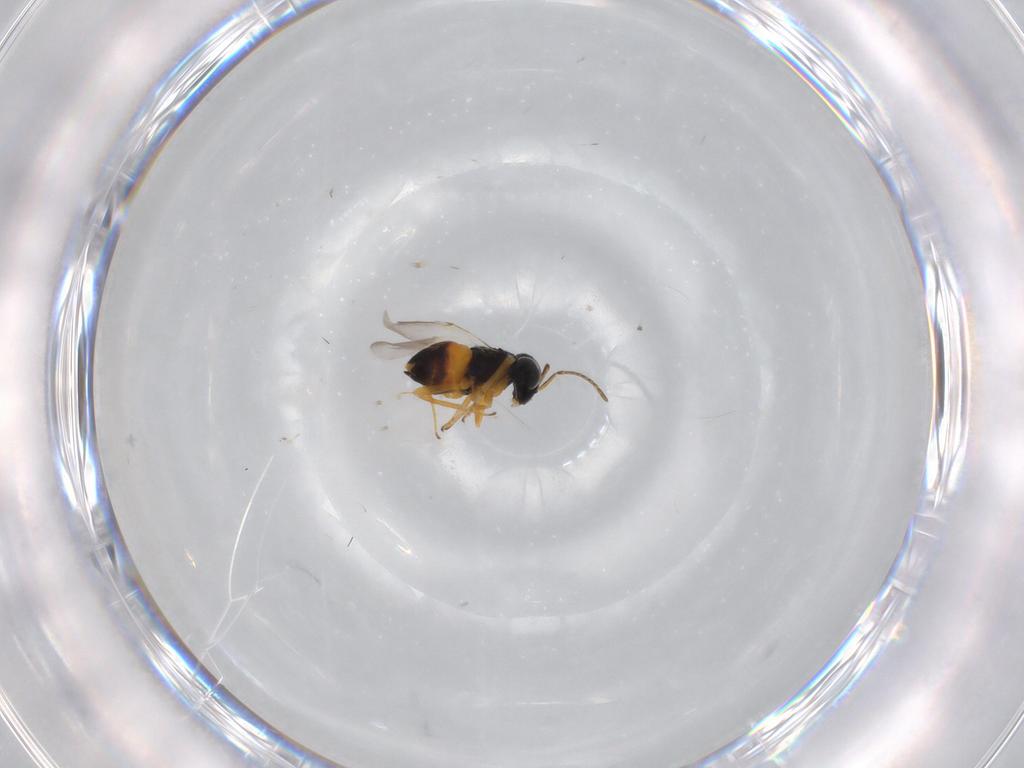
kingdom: Animalia
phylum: Arthropoda
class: Insecta
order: Hymenoptera
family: Encyrtidae
